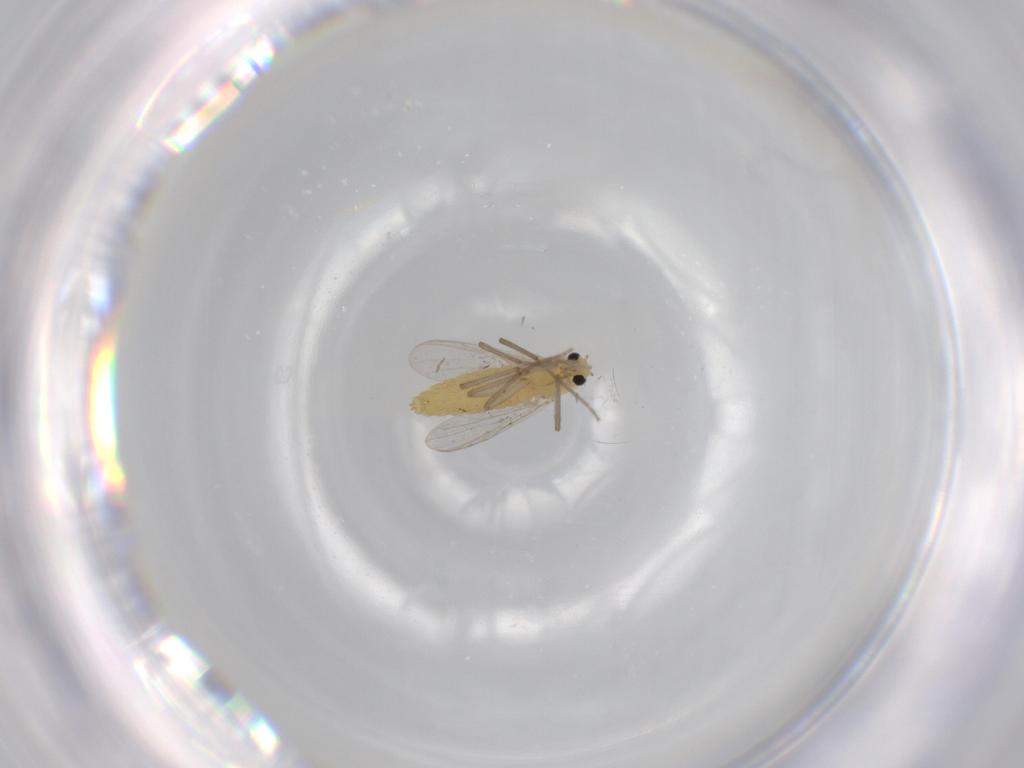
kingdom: Animalia
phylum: Arthropoda
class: Insecta
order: Diptera
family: Chironomidae
